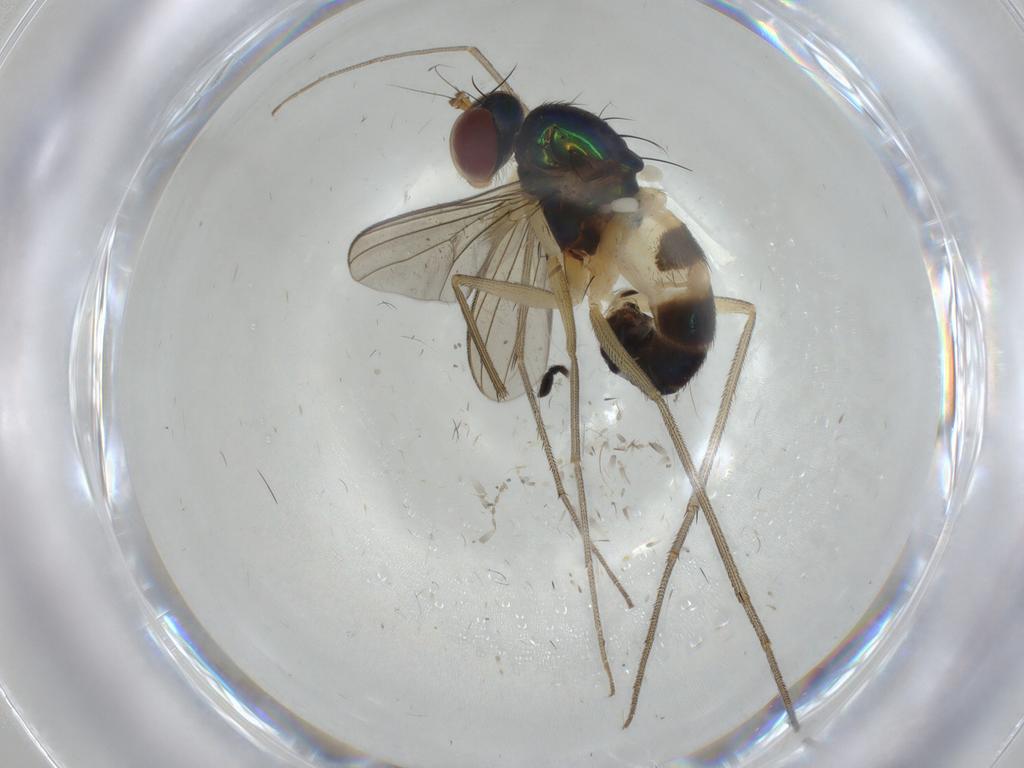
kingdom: Animalia
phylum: Arthropoda
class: Insecta
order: Diptera
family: Dolichopodidae
